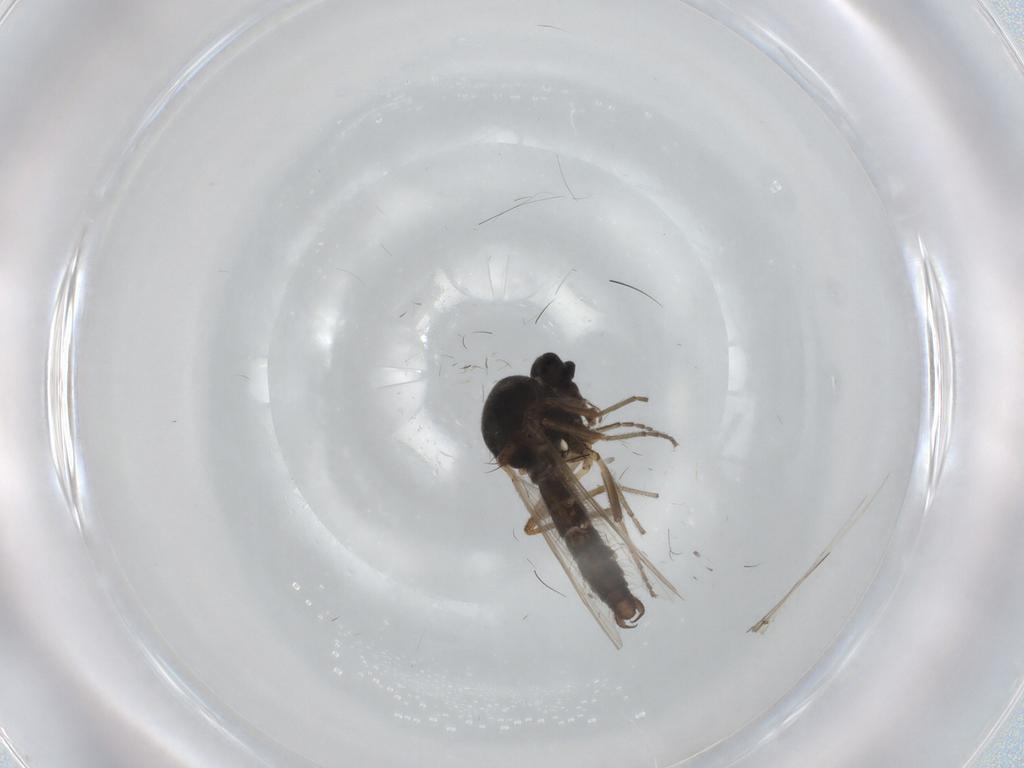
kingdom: Animalia
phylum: Arthropoda
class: Insecta
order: Diptera
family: Ceratopogonidae
